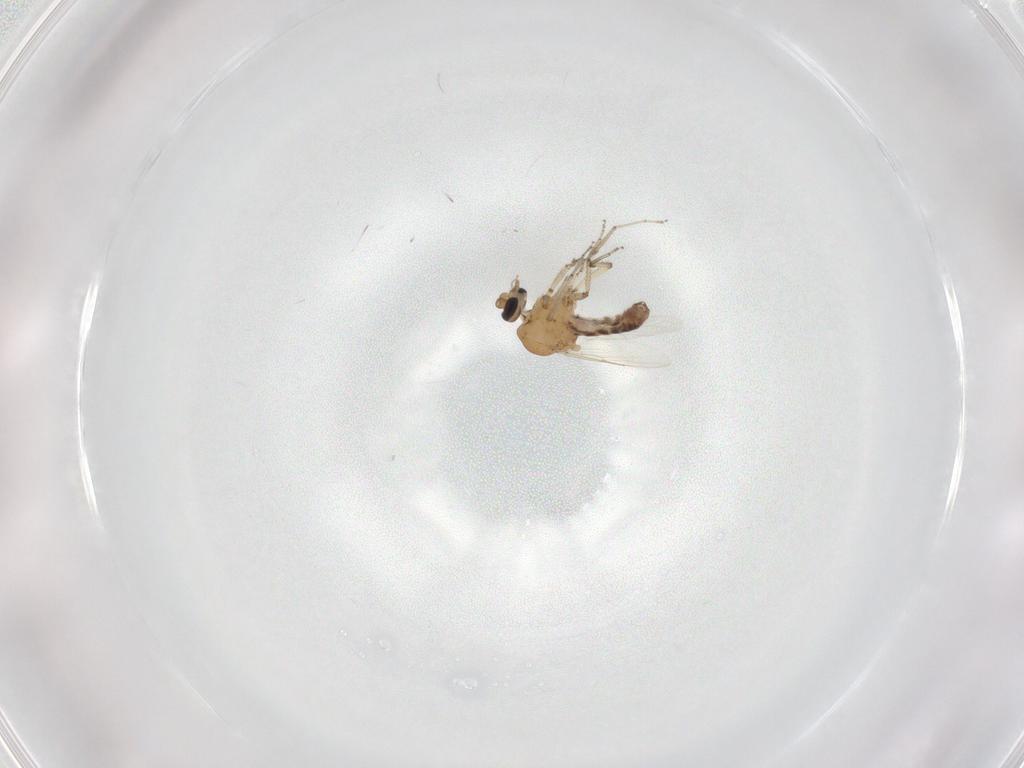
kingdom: Animalia
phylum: Arthropoda
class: Insecta
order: Diptera
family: Ceratopogonidae
